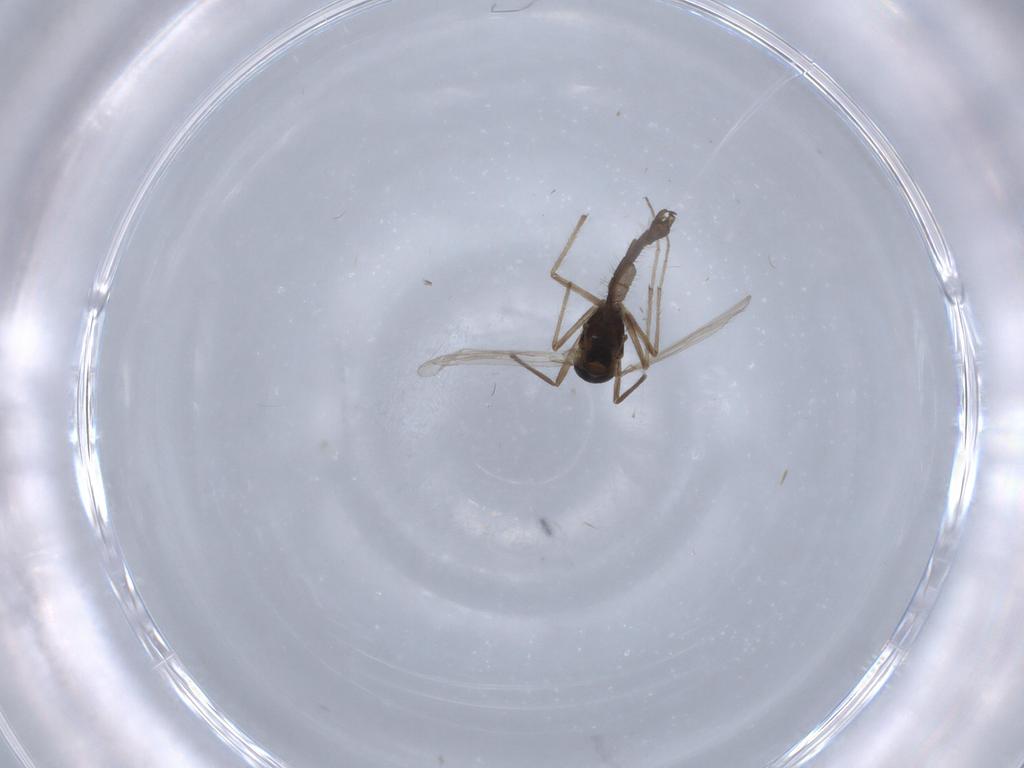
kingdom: Animalia
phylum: Arthropoda
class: Insecta
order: Diptera
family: Chironomidae
